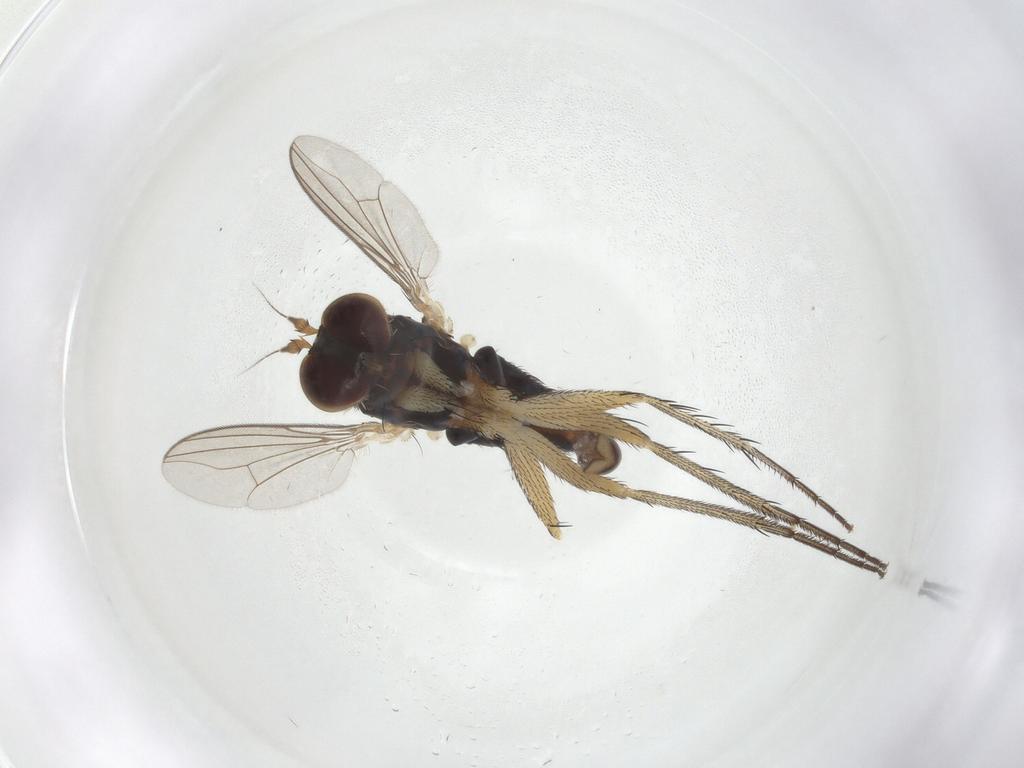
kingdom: Animalia
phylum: Arthropoda
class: Insecta
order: Diptera
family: Dolichopodidae
